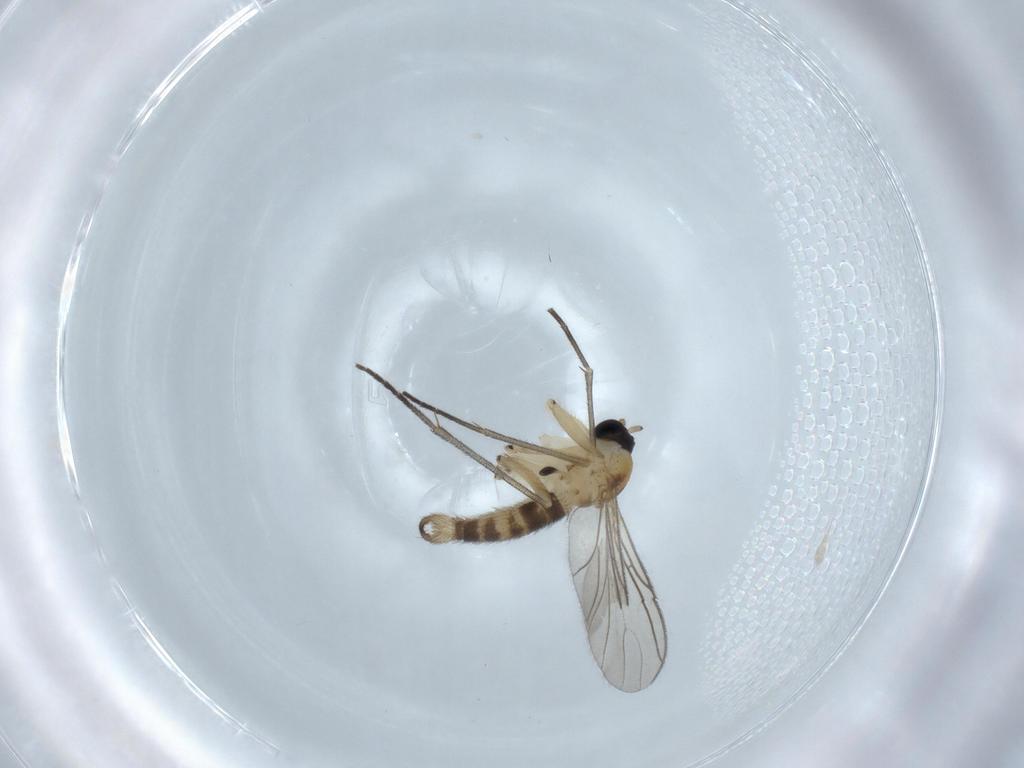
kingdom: Animalia
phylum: Arthropoda
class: Insecta
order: Diptera
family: Sciaridae
